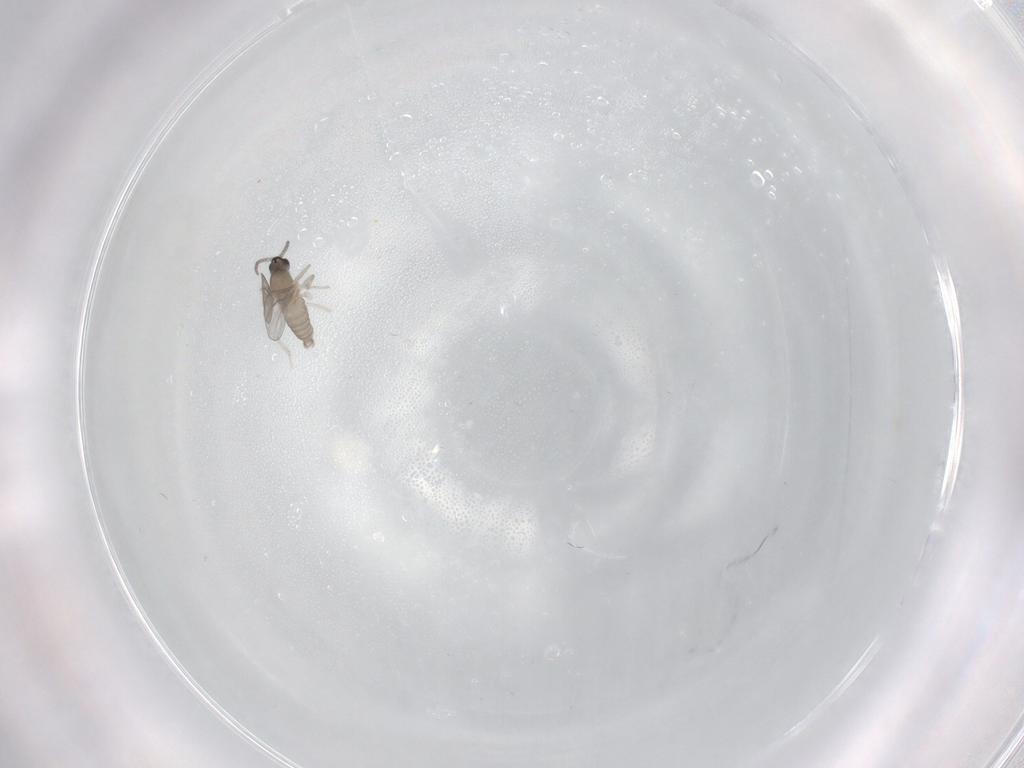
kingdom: Animalia
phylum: Arthropoda
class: Insecta
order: Diptera
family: Cecidomyiidae
